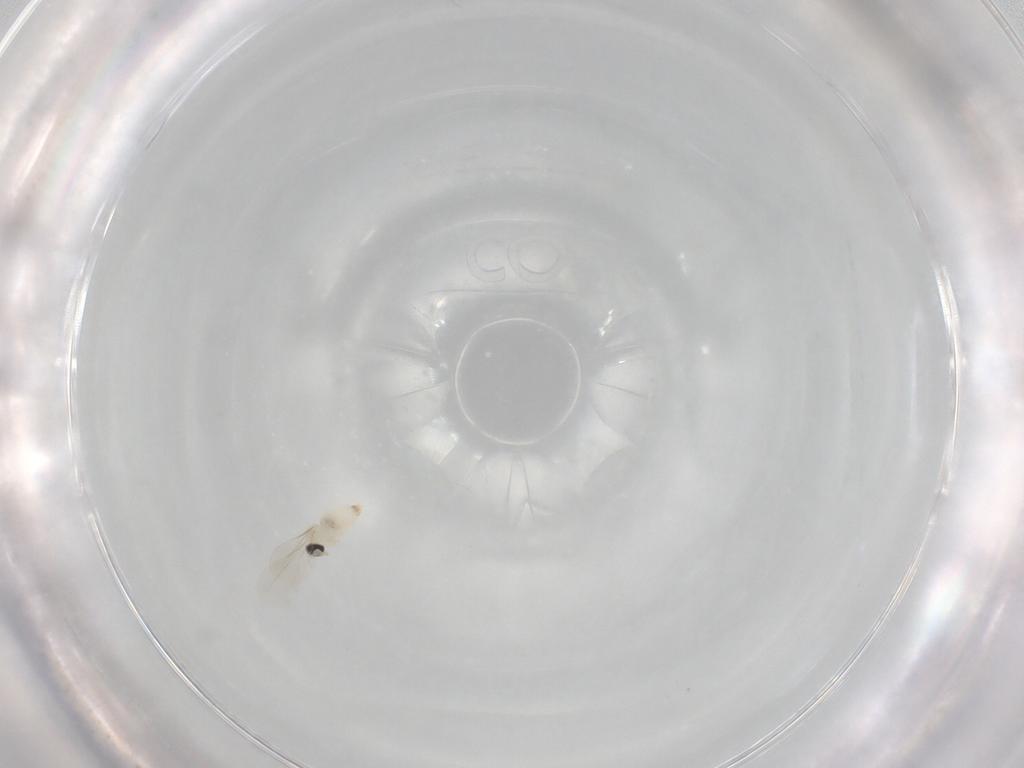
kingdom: Animalia
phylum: Arthropoda
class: Insecta
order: Diptera
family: Cecidomyiidae
